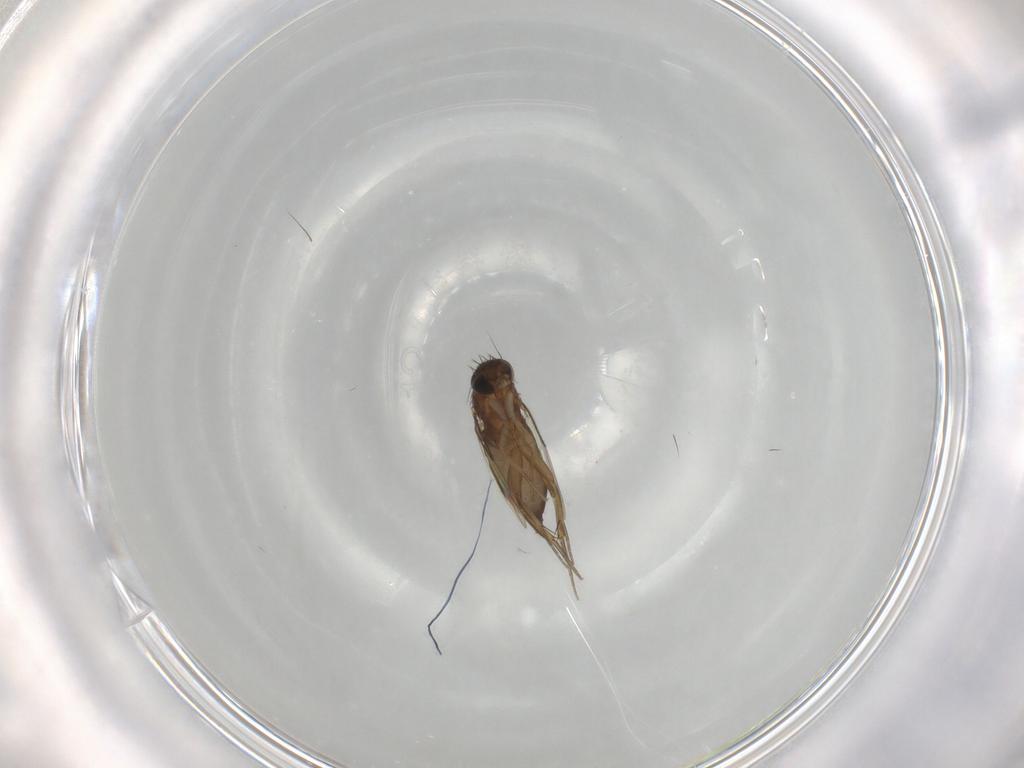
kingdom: Animalia
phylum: Arthropoda
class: Insecta
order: Diptera
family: Phoridae
